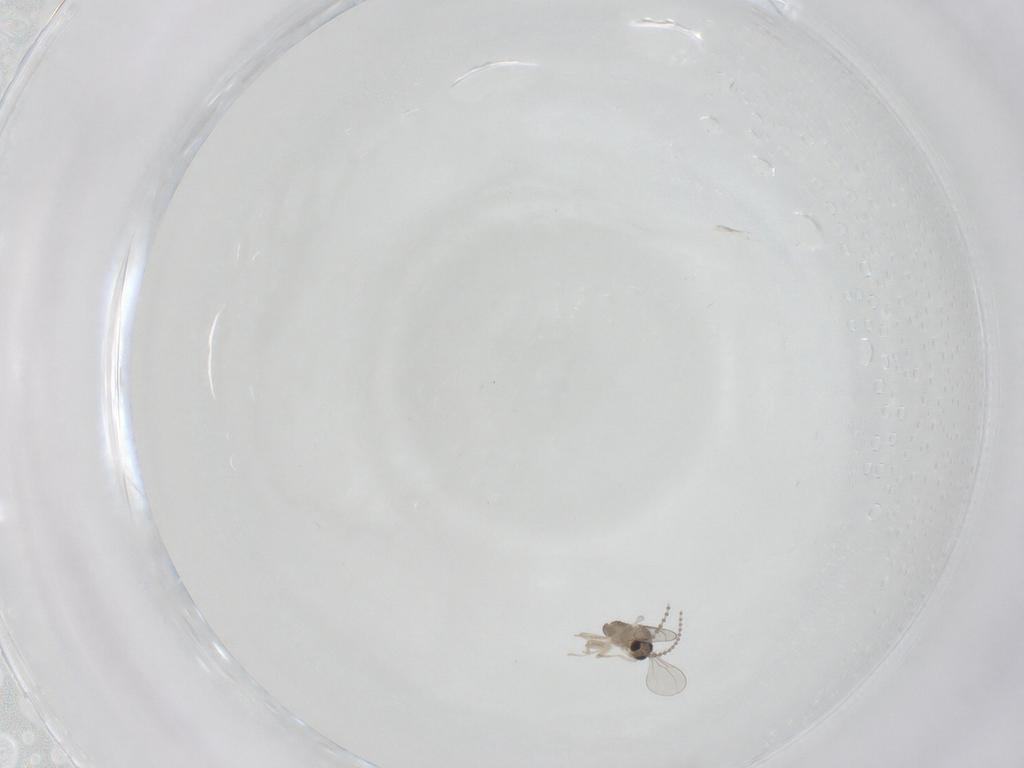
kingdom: Animalia
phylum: Arthropoda
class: Insecta
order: Diptera
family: Cecidomyiidae
